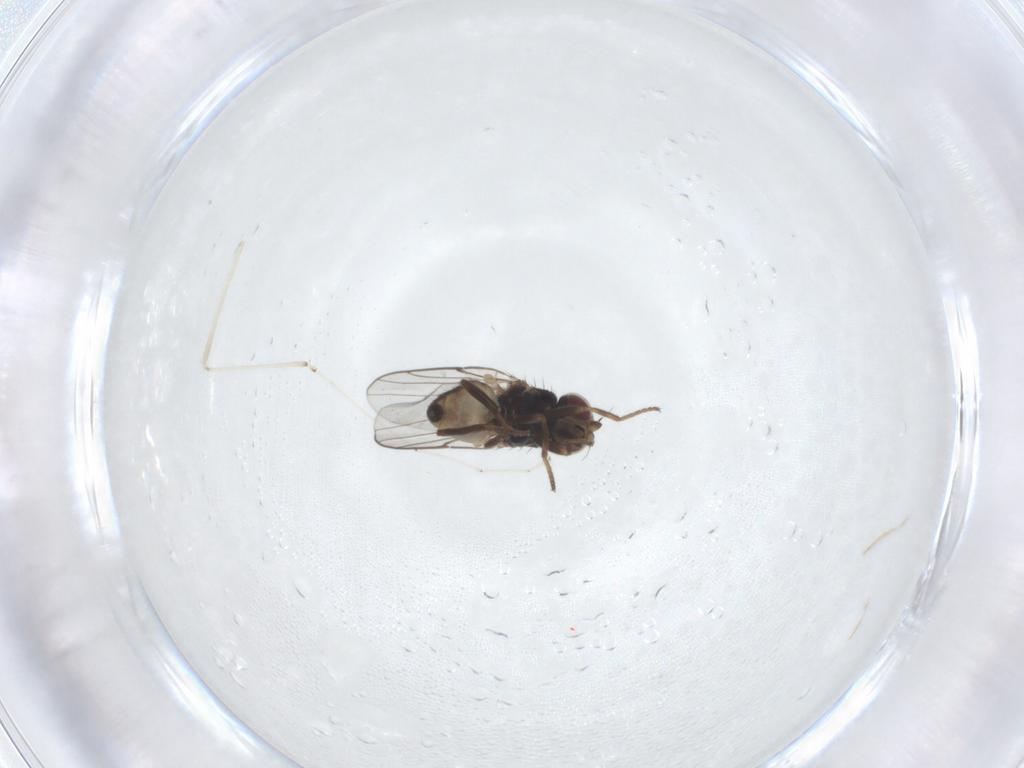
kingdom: Animalia
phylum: Arthropoda
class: Insecta
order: Diptera
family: Chloropidae
